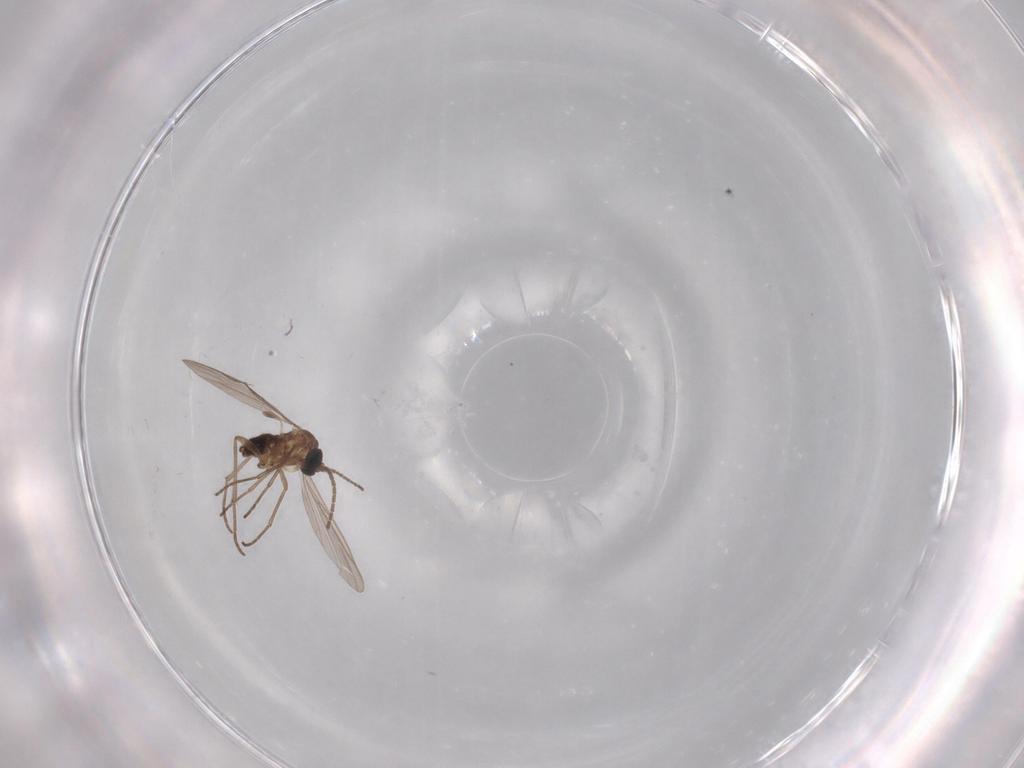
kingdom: Animalia
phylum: Arthropoda
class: Insecta
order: Diptera
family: Sciaridae
